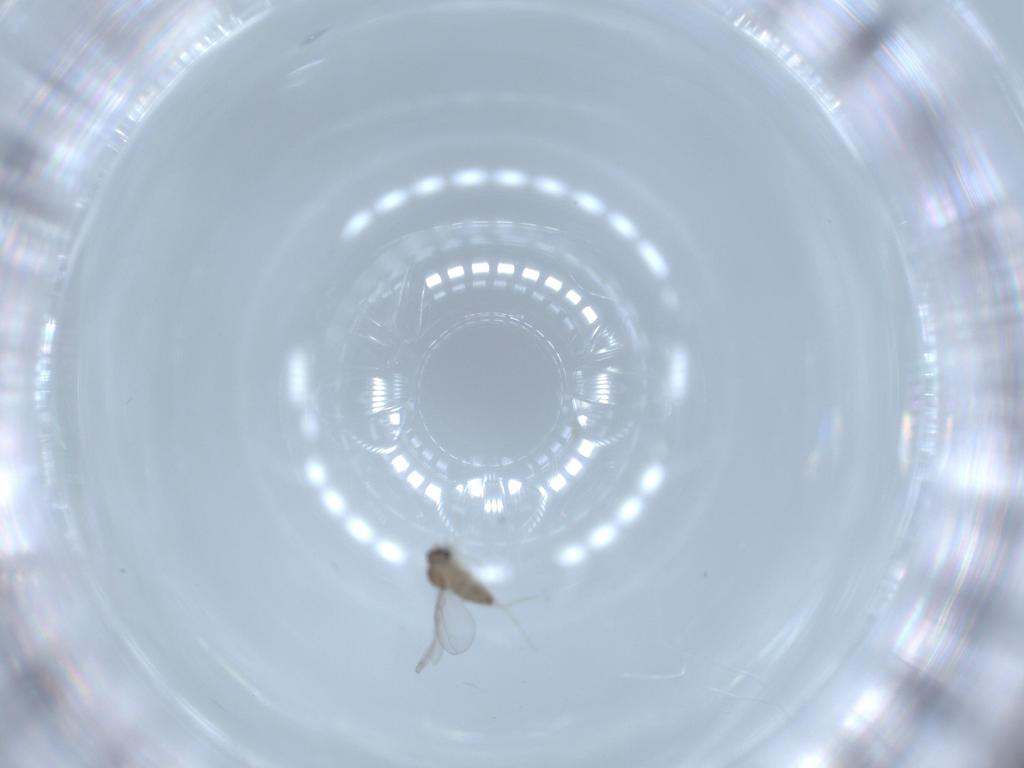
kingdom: Animalia
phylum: Arthropoda
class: Insecta
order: Diptera
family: Cecidomyiidae
